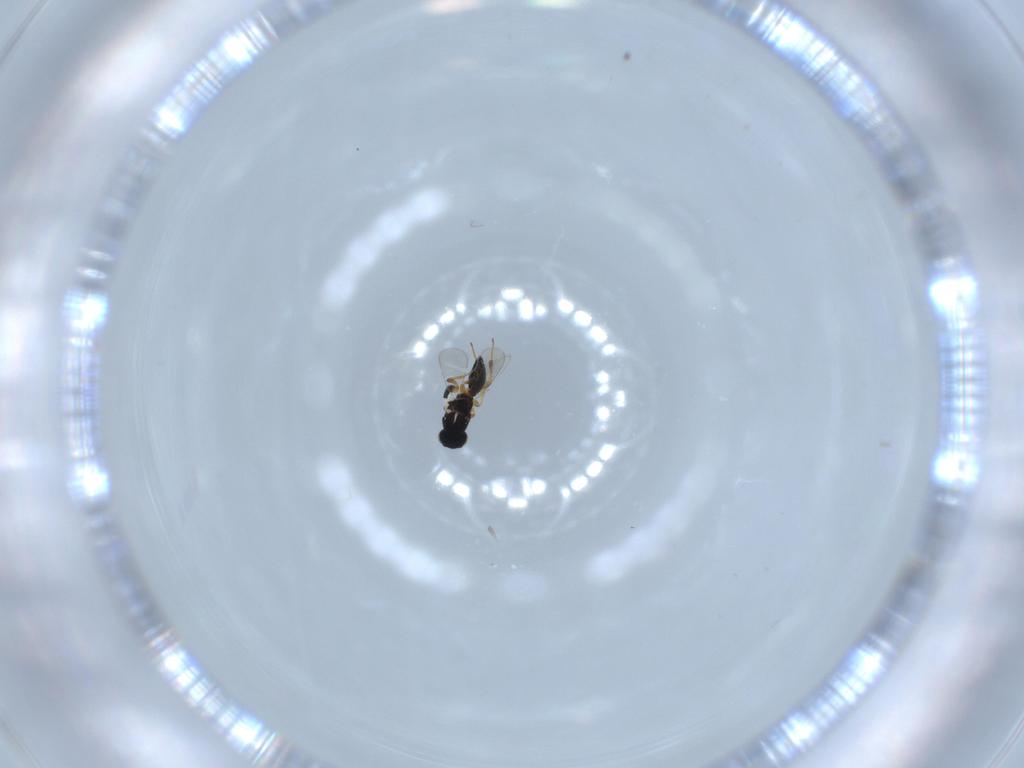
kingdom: Animalia
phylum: Arthropoda
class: Insecta
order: Hymenoptera
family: Platygastridae
